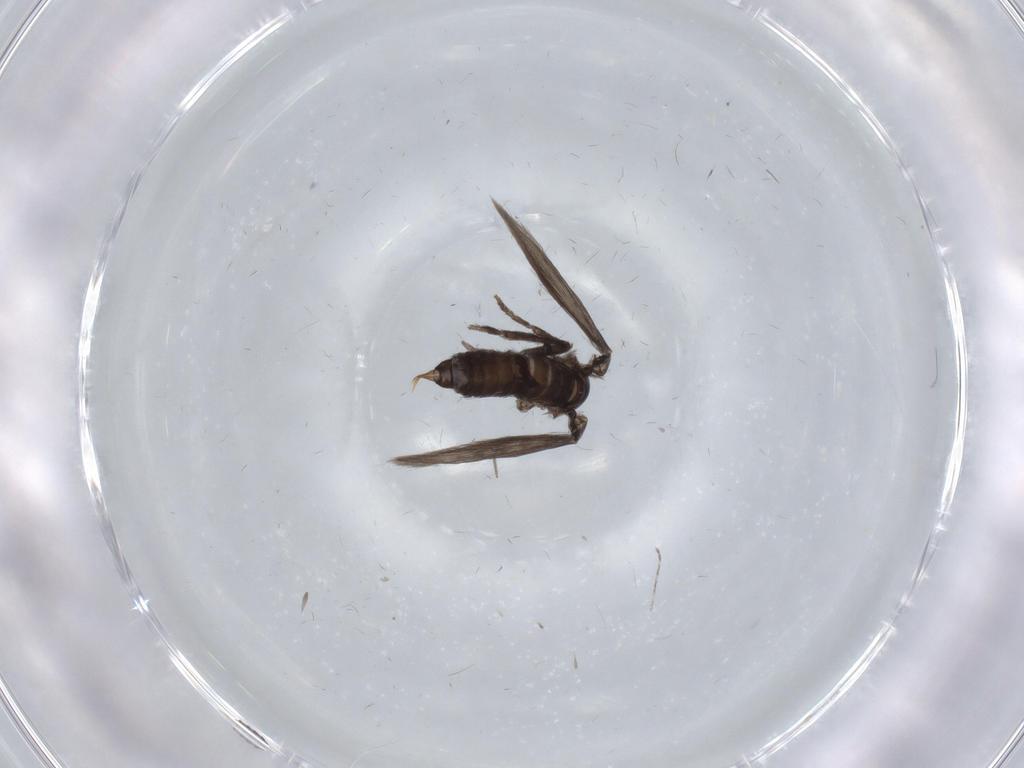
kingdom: Animalia
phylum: Arthropoda
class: Insecta
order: Diptera
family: Psychodidae
